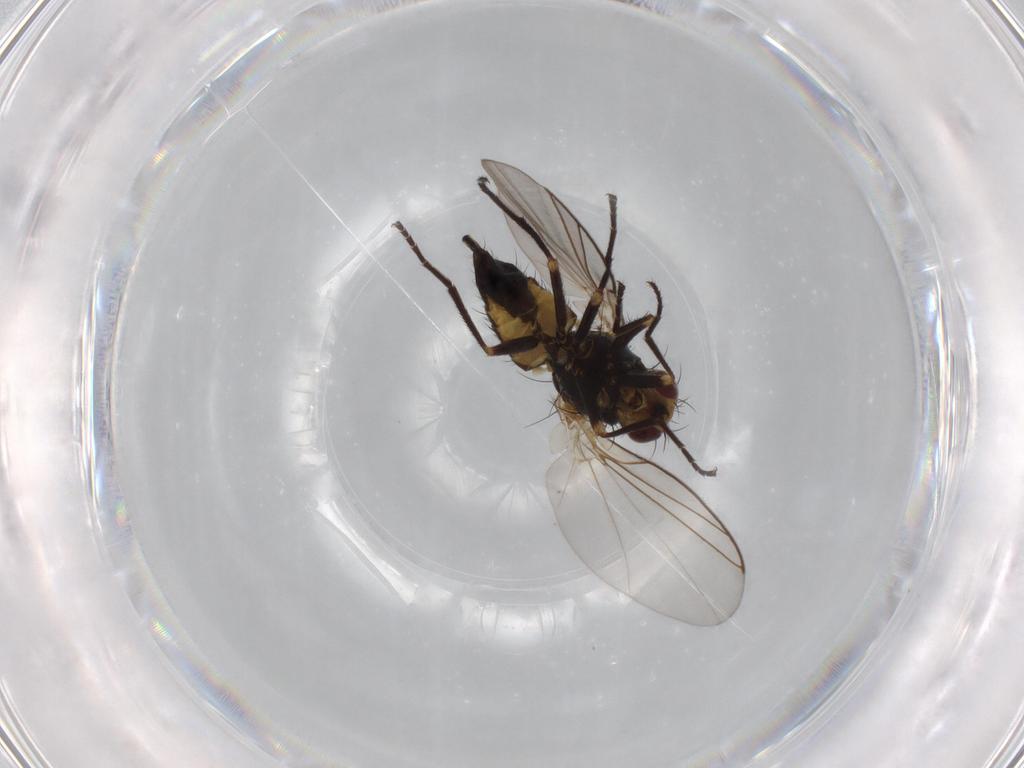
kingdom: Animalia
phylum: Arthropoda
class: Insecta
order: Diptera
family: Agromyzidae
